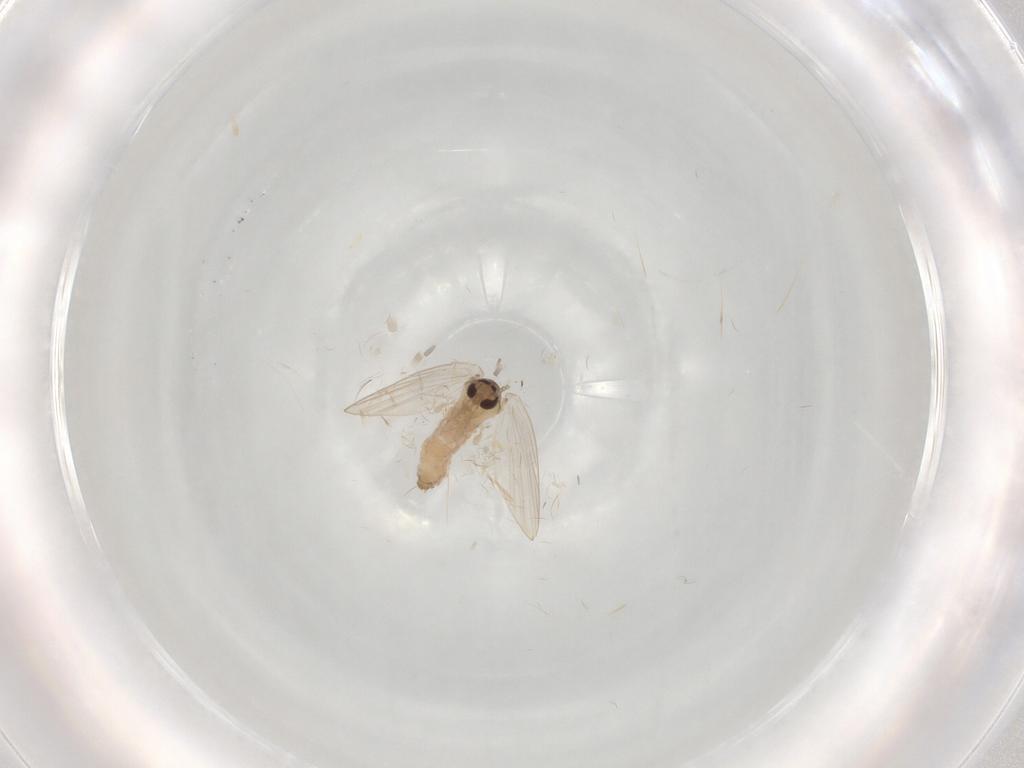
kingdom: Animalia
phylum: Arthropoda
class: Insecta
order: Diptera
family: Psychodidae
